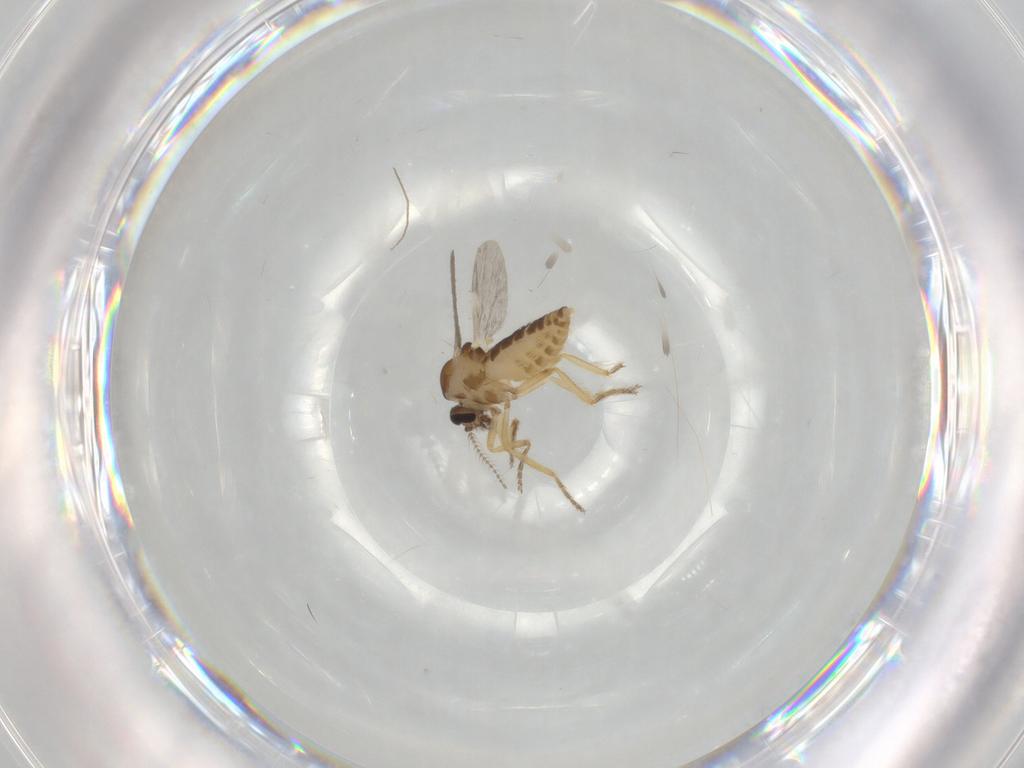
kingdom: Animalia
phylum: Arthropoda
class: Insecta
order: Diptera
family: Ceratopogonidae
